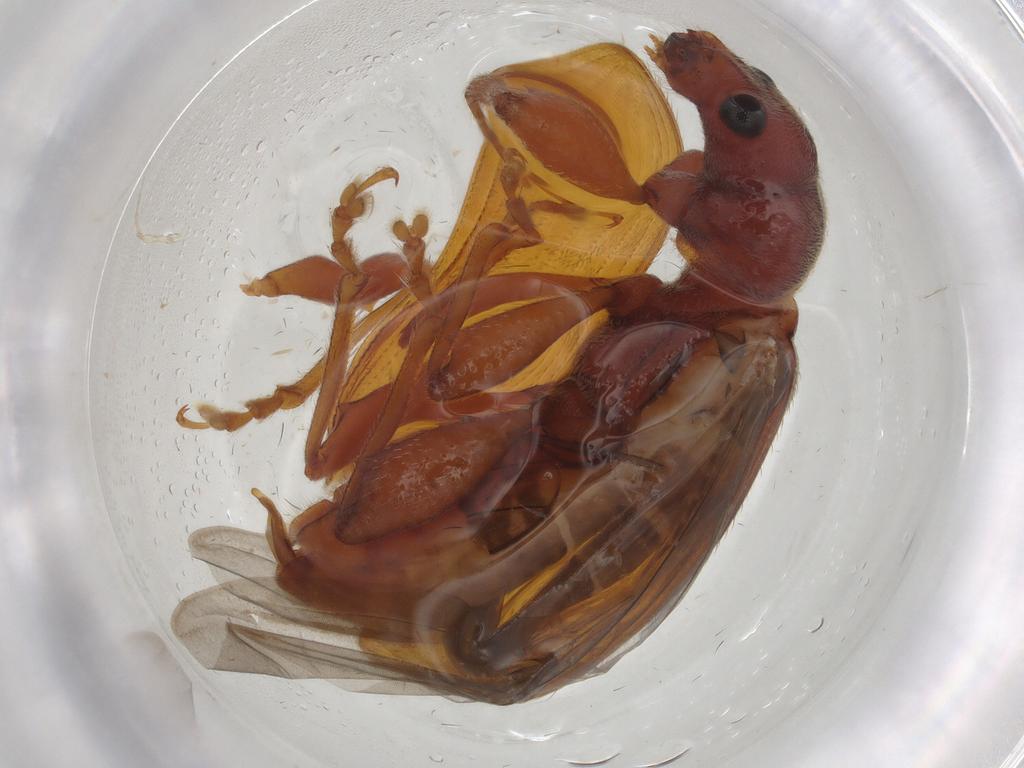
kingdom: Animalia
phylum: Arthropoda
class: Insecta
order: Coleoptera
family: Curculionidae
